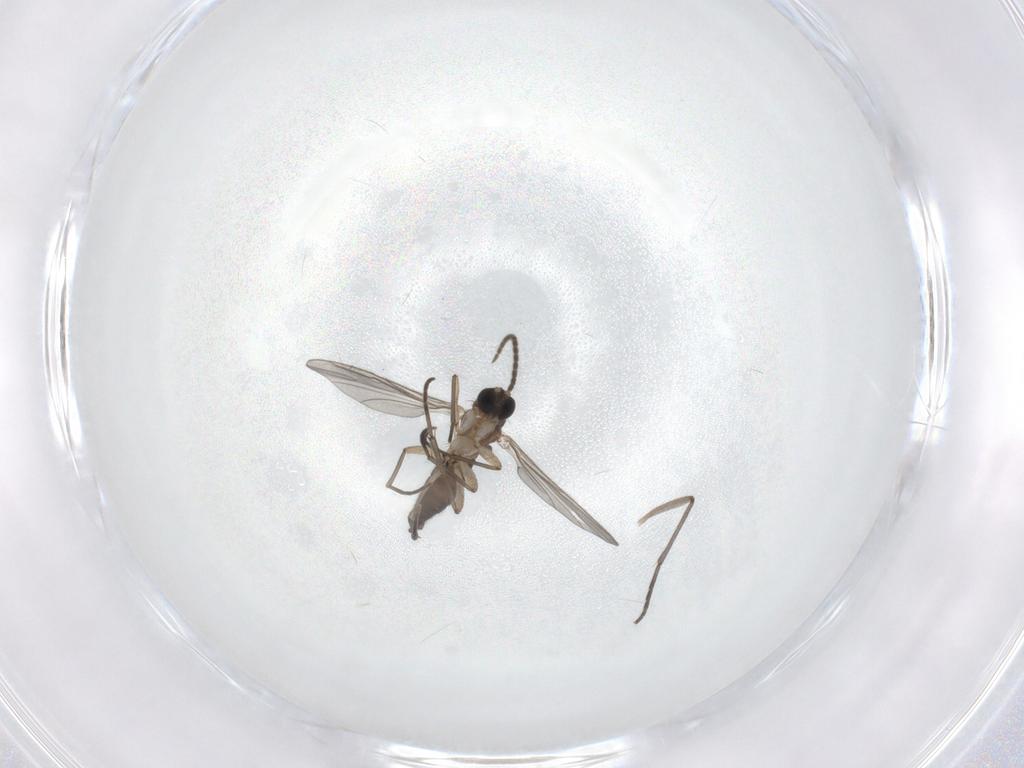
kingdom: Animalia
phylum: Arthropoda
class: Insecta
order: Diptera
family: Sciaridae
